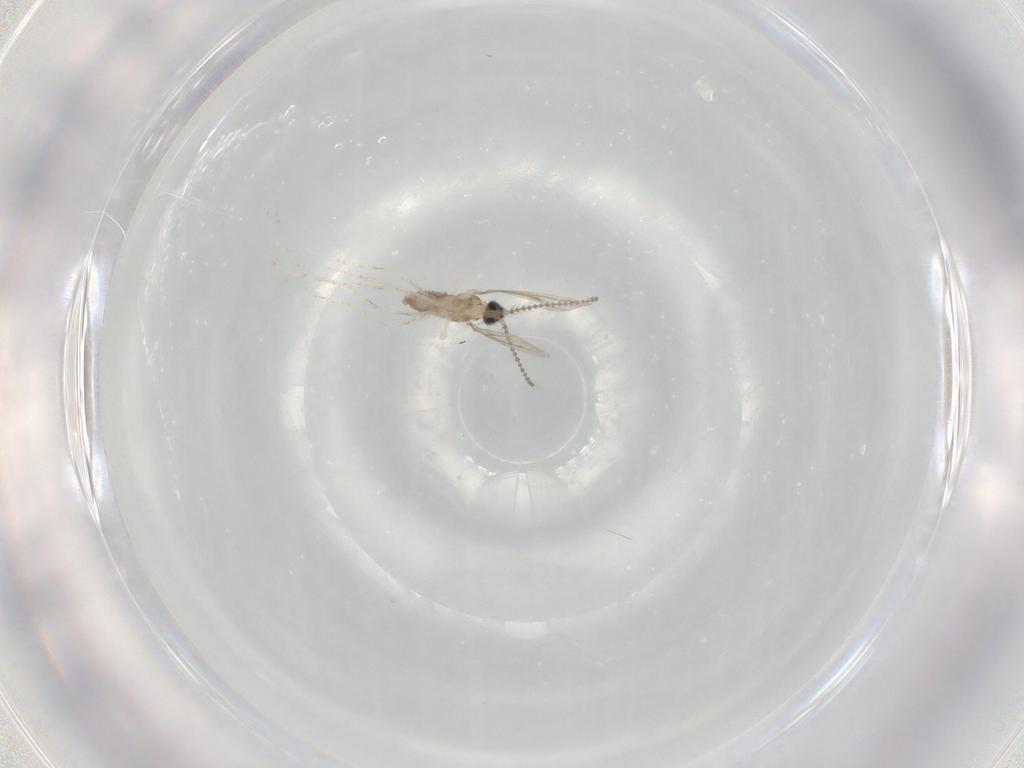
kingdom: Animalia
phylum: Arthropoda
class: Insecta
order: Diptera
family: Cecidomyiidae
